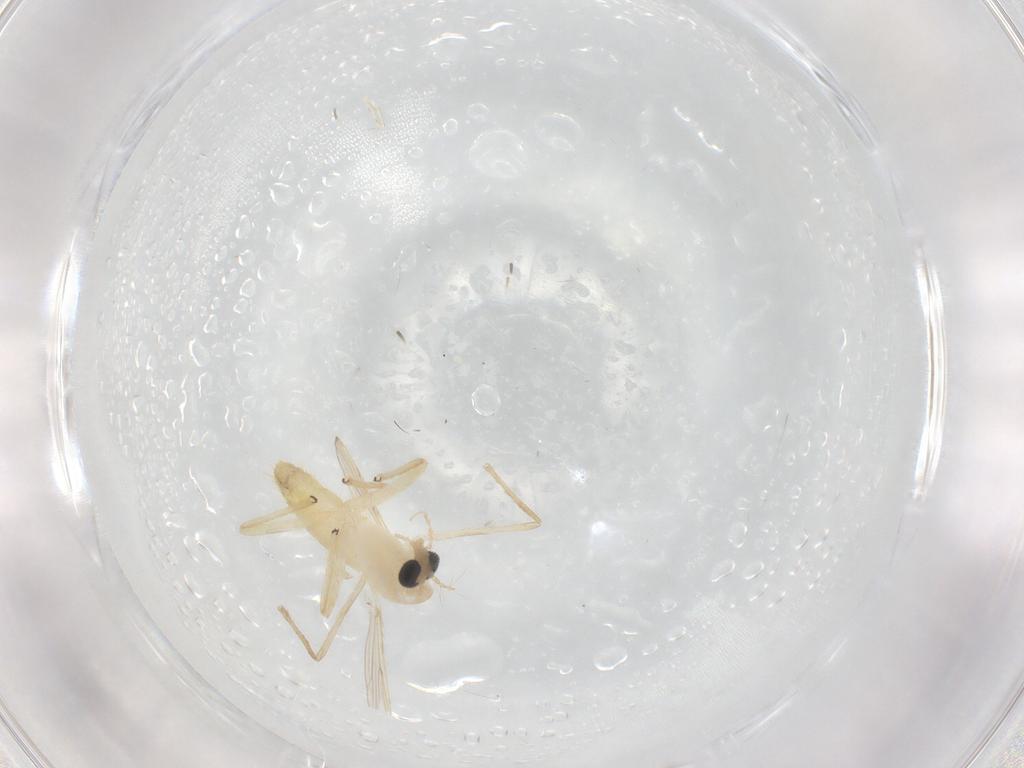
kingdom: Animalia
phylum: Arthropoda
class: Insecta
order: Diptera
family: Chironomidae
